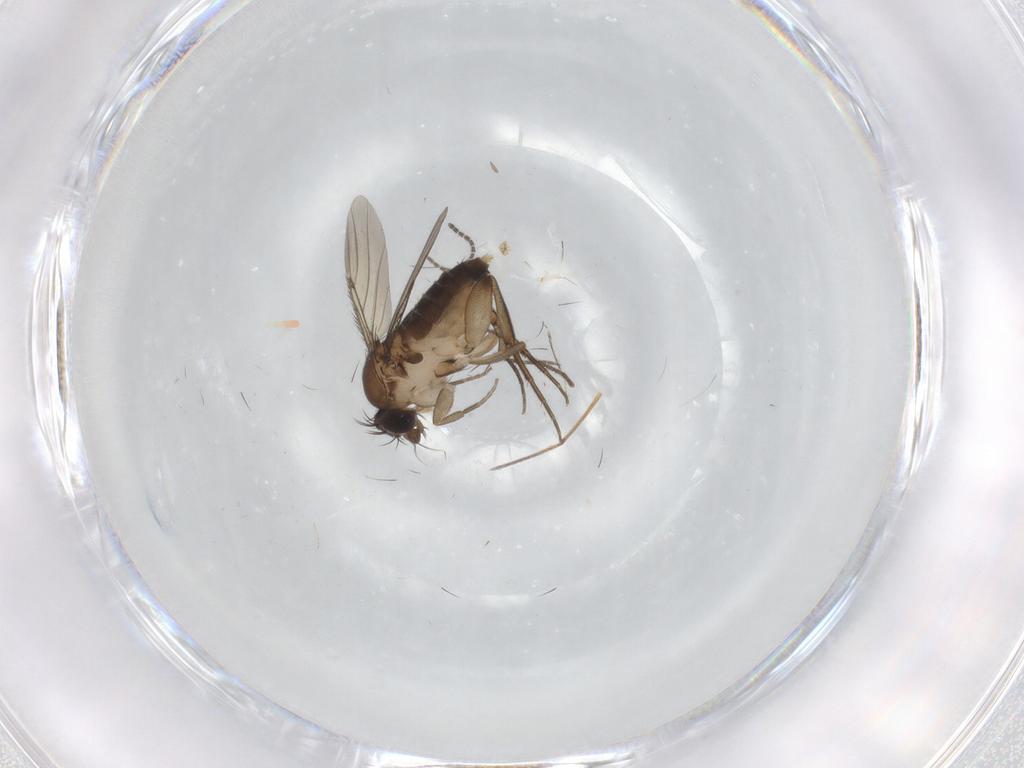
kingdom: Animalia
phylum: Arthropoda
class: Insecta
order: Diptera
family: Phoridae
